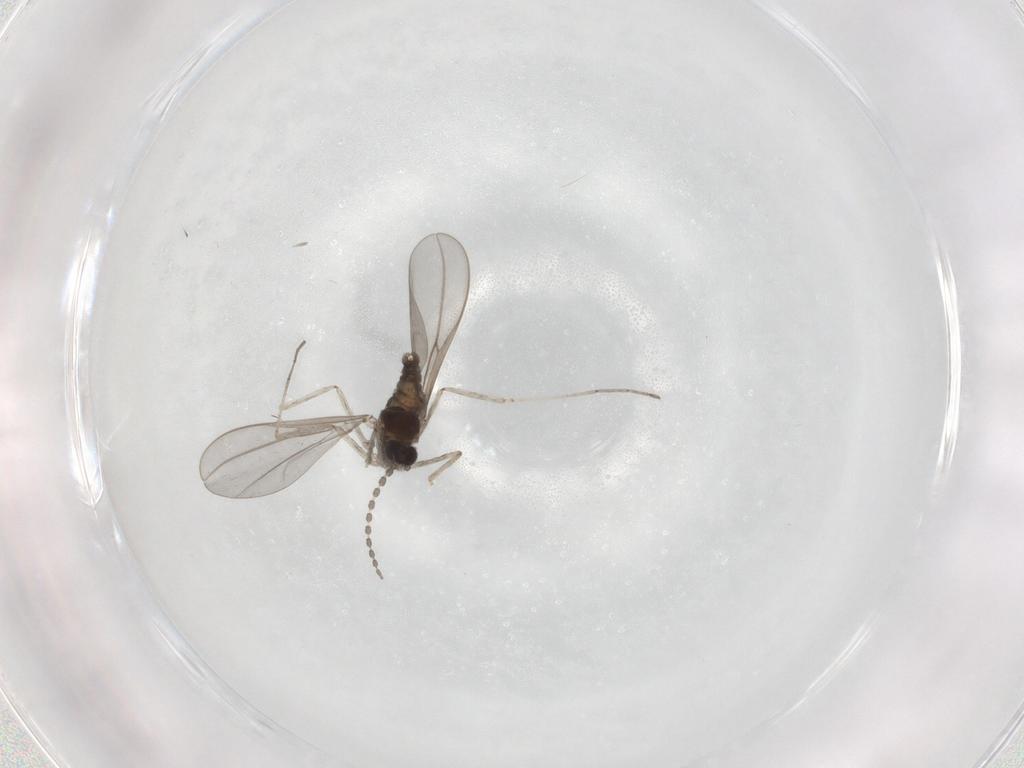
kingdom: Animalia
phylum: Arthropoda
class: Insecta
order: Diptera
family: Cecidomyiidae
